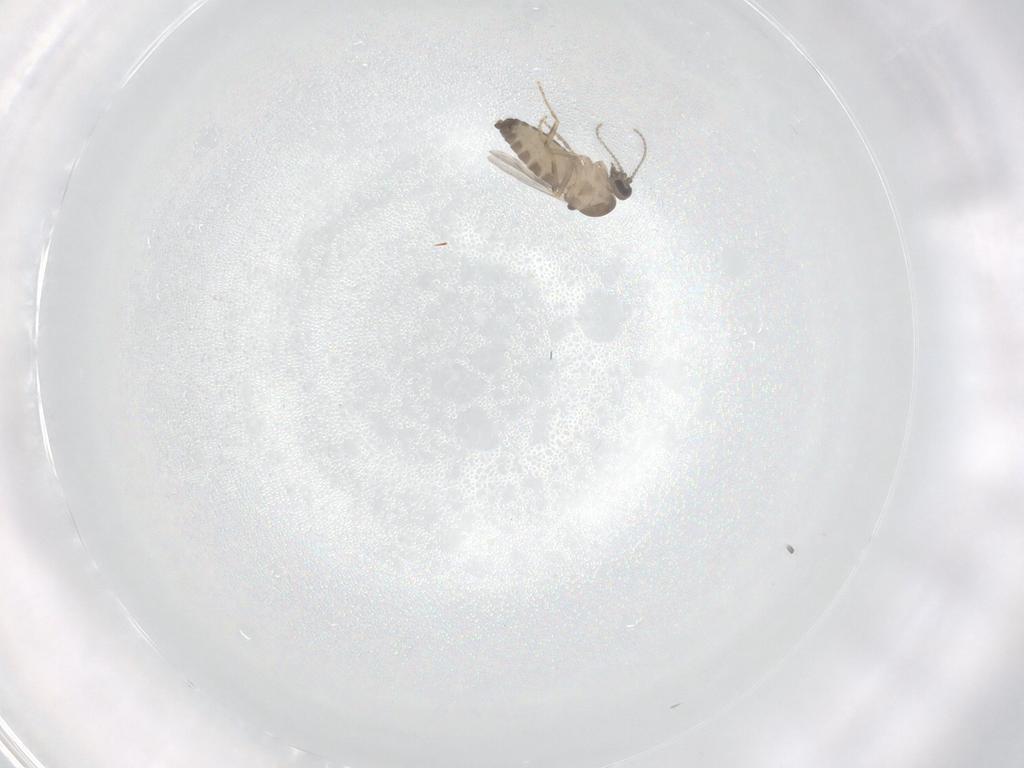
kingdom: Animalia
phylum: Arthropoda
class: Insecta
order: Diptera
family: Ceratopogonidae
